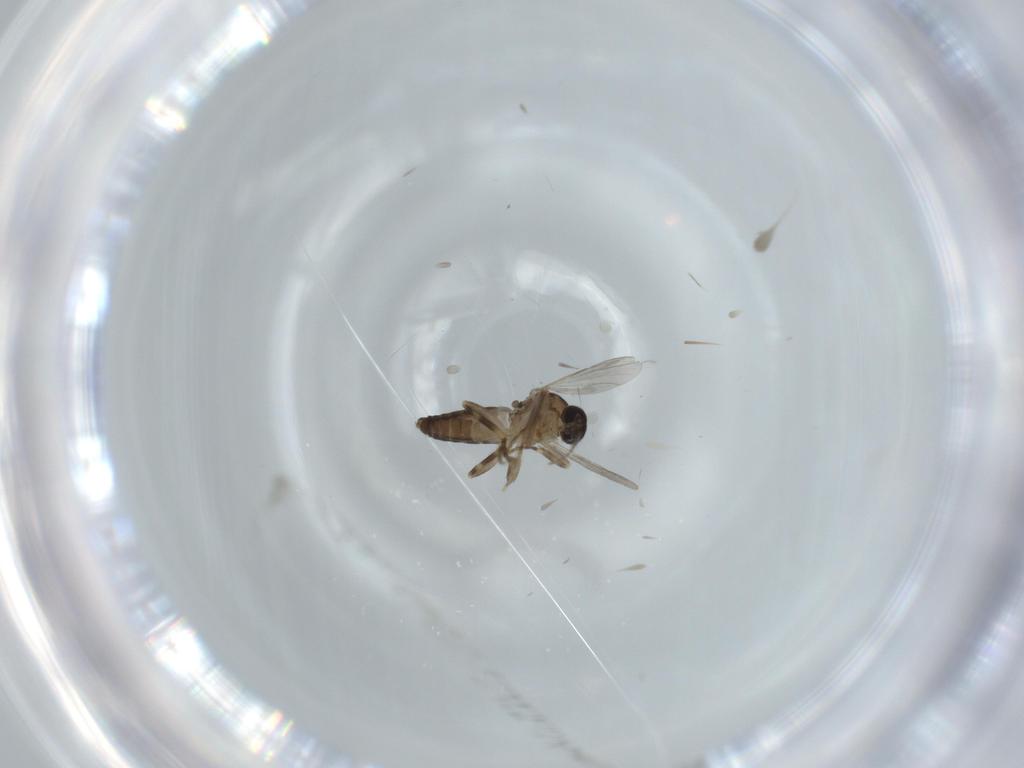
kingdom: Animalia
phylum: Arthropoda
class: Insecta
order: Diptera
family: Ceratopogonidae
